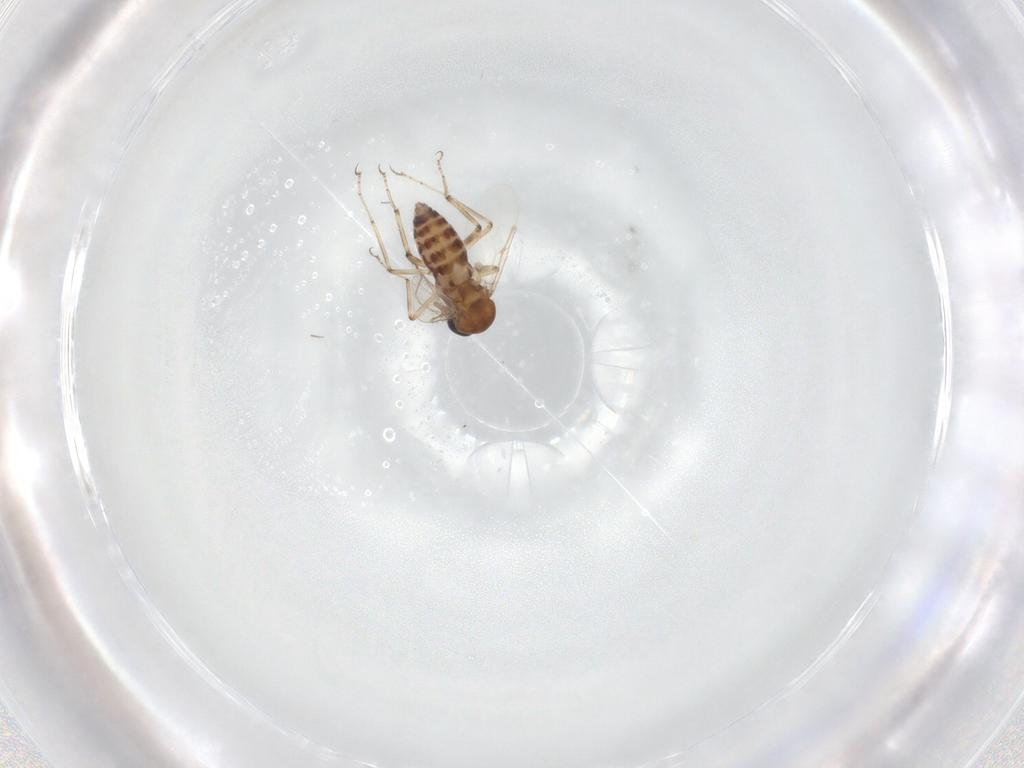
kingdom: Animalia
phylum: Arthropoda
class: Insecta
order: Diptera
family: Ceratopogonidae
